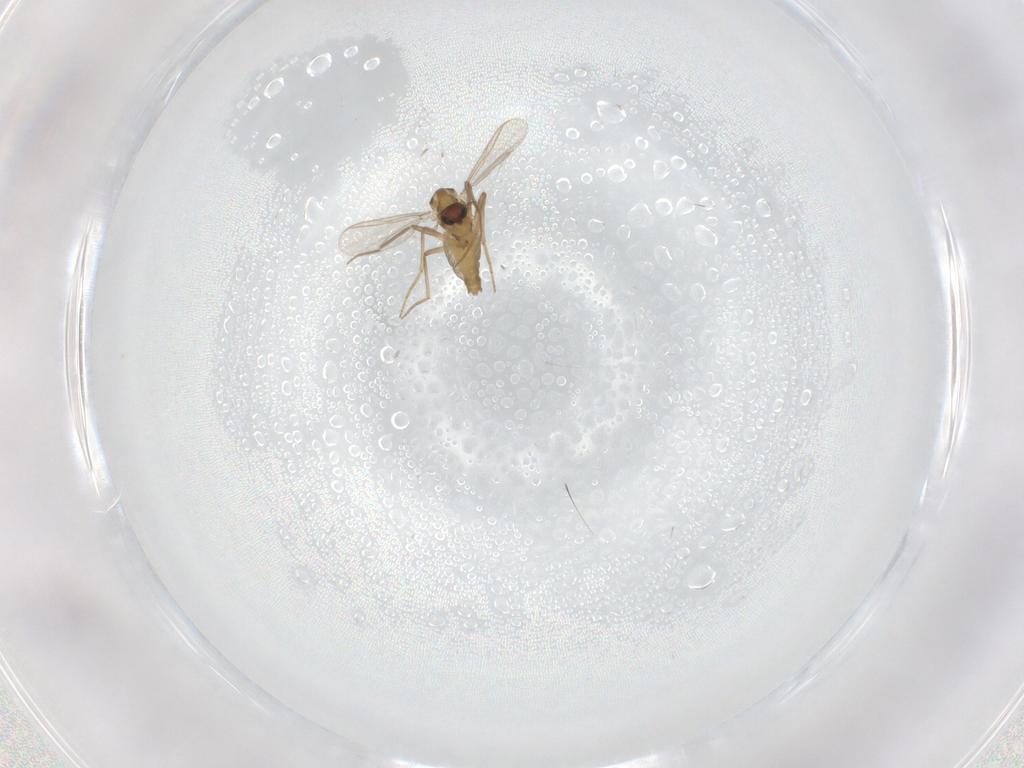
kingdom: Animalia
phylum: Arthropoda
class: Insecta
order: Diptera
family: Chironomidae
